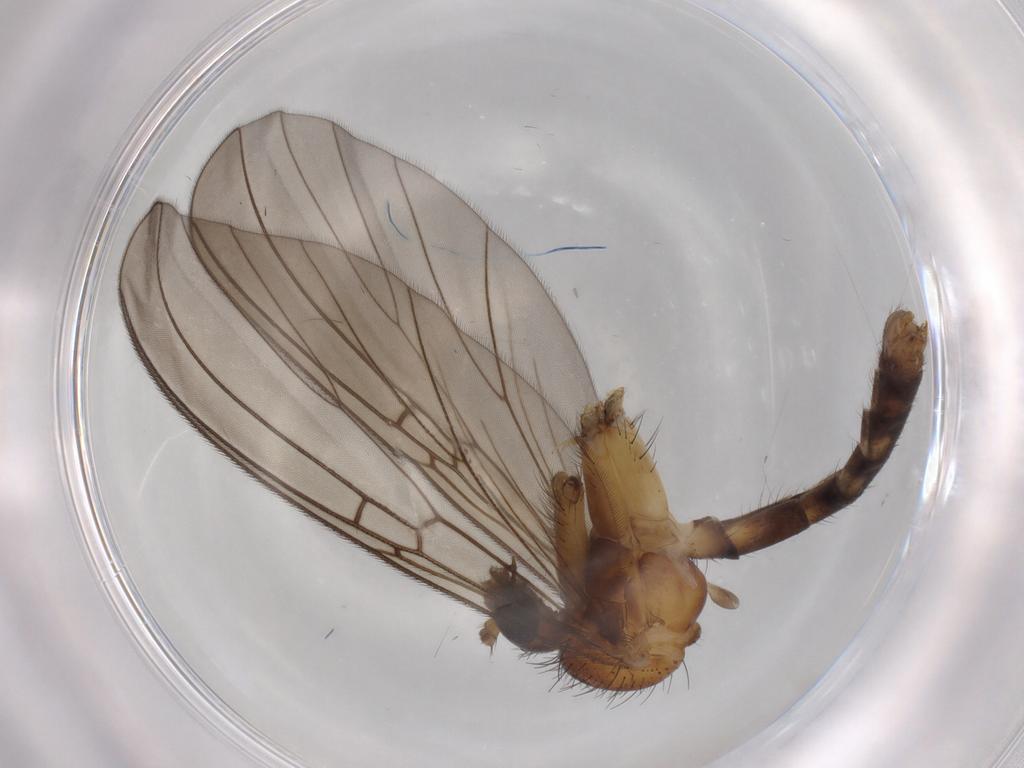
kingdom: Animalia
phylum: Arthropoda
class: Insecta
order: Diptera
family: Mycetophilidae
